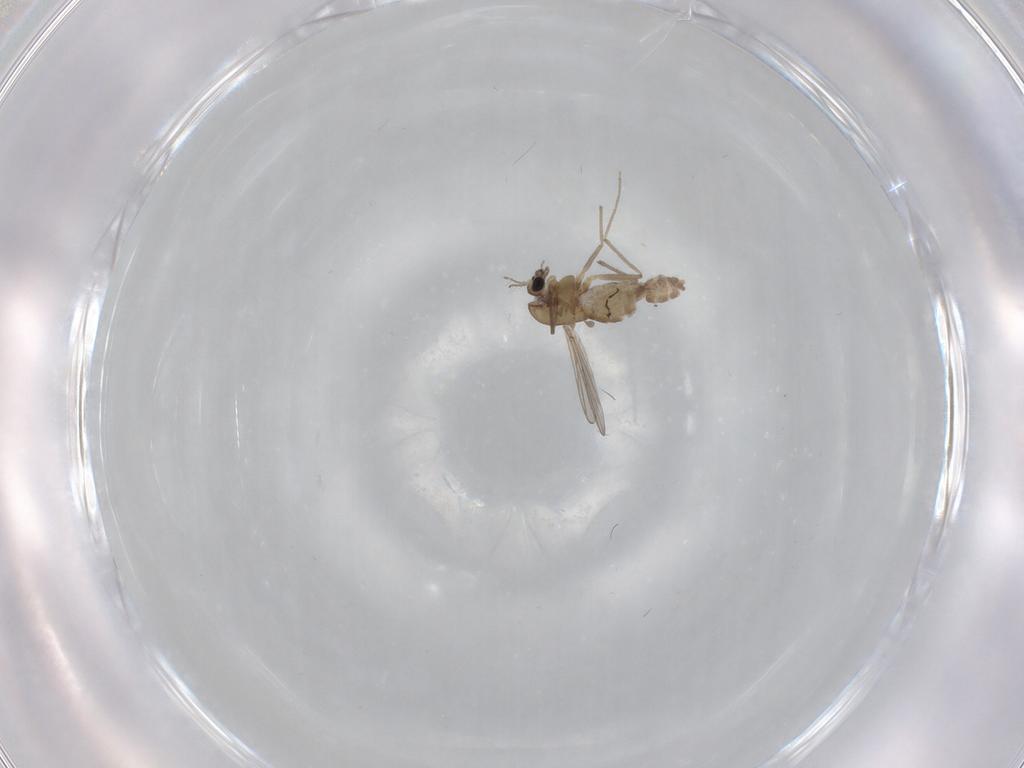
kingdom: Animalia
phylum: Arthropoda
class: Insecta
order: Diptera
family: Chironomidae
